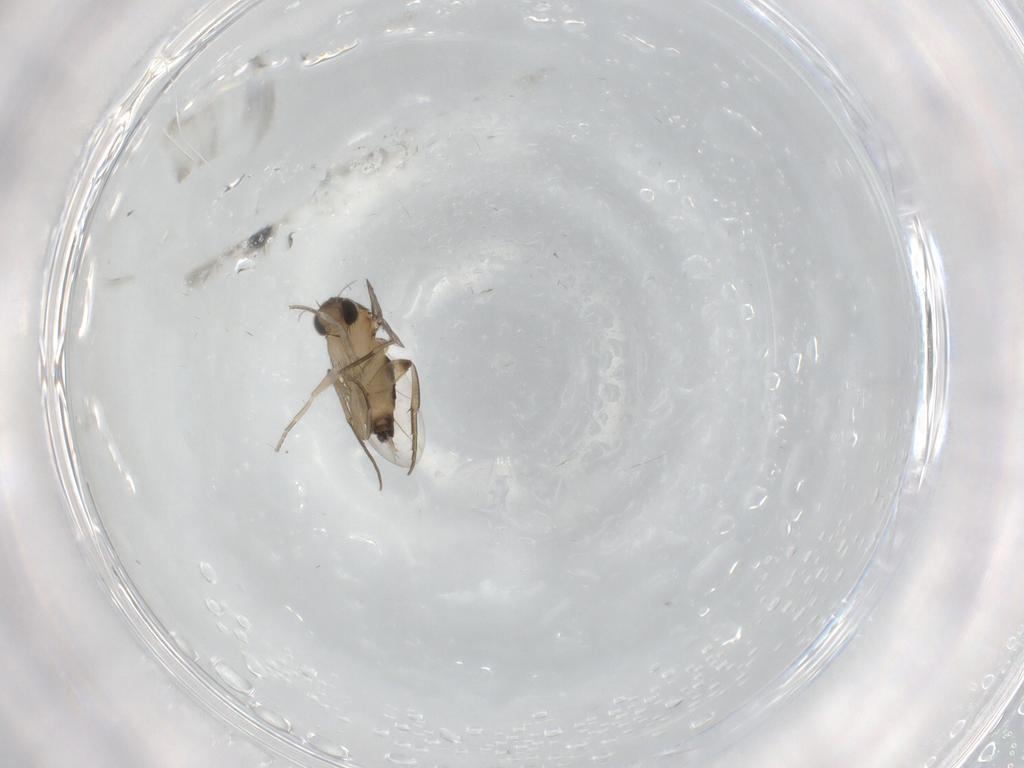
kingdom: Animalia
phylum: Arthropoda
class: Insecta
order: Diptera
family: Phoridae
